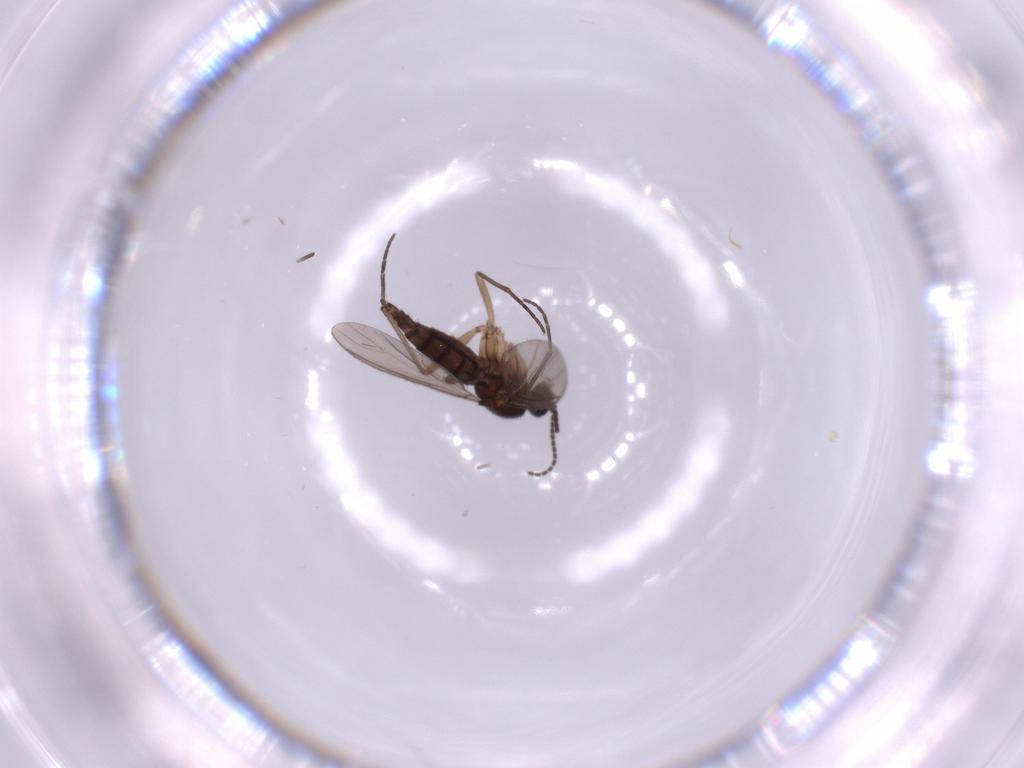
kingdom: Animalia
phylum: Arthropoda
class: Insecta
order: Diptera
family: Sciaridae
